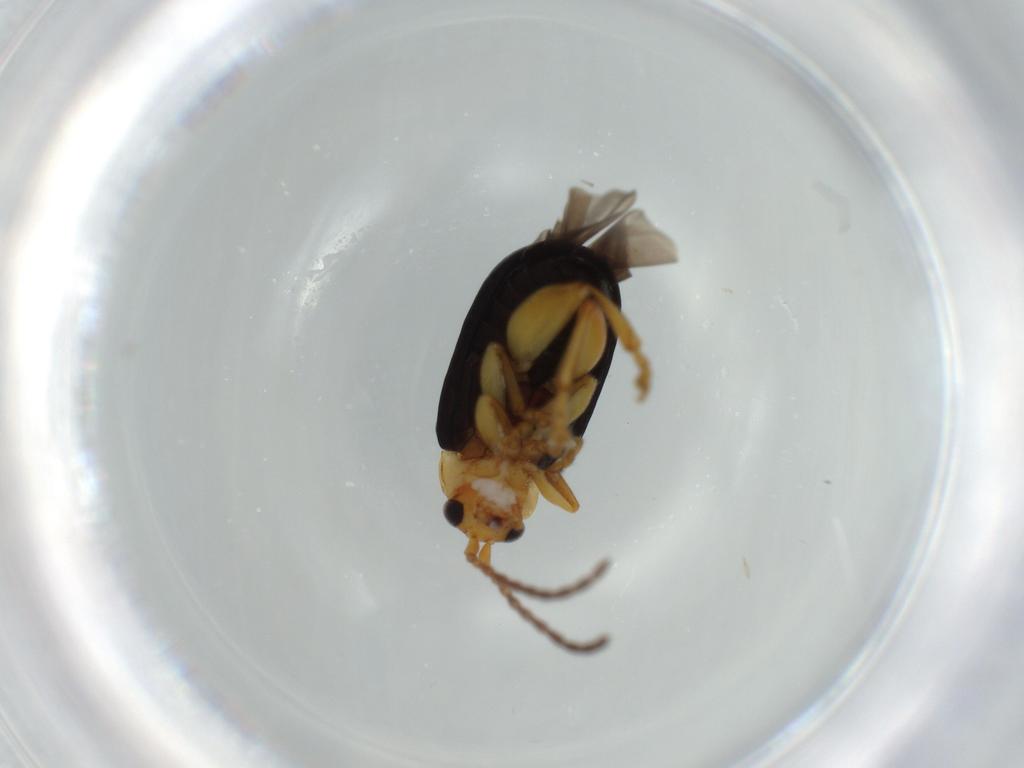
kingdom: Animalia
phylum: Arthropoda
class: Insecta
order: Coleoptera
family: Chrysomelidae
